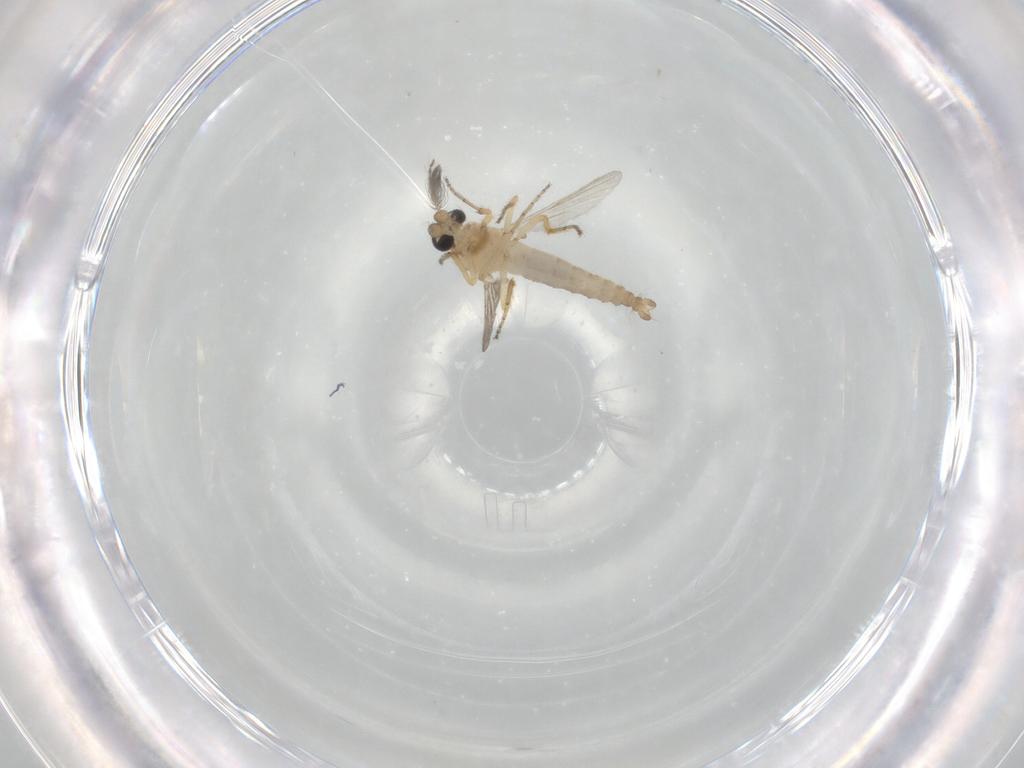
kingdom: Animalia
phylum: Arthropoda
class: Insecta
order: Diptera
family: Ceratopogonidae
